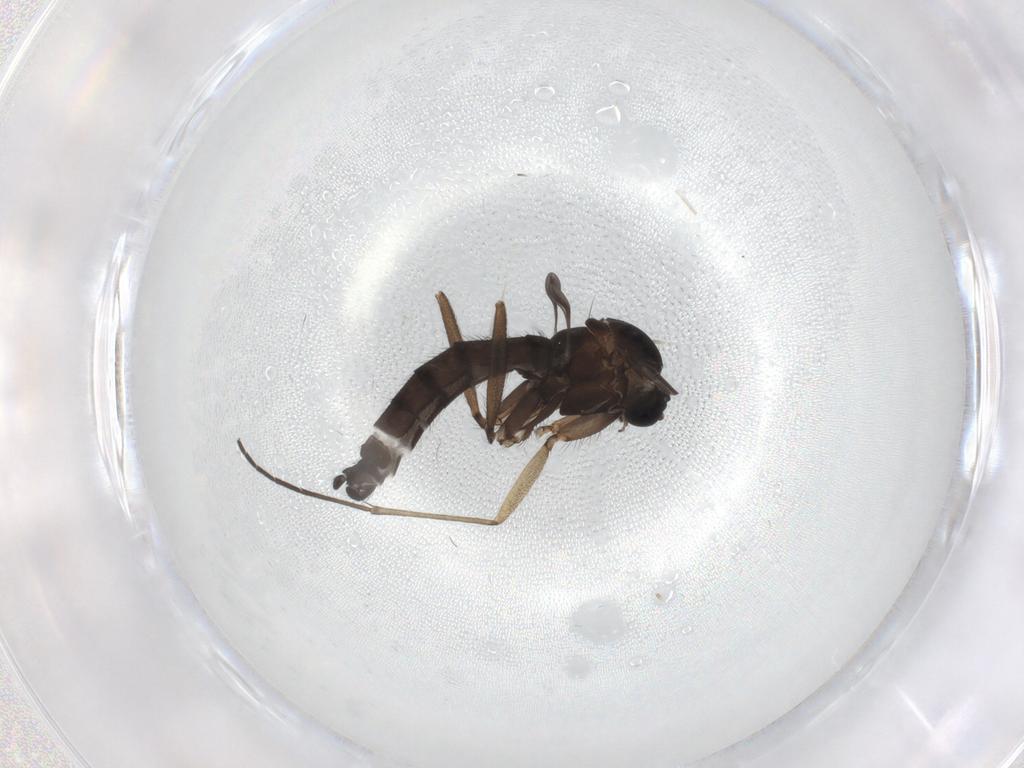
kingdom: Animalia
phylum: Arthropoda
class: Insecta
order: Diptera
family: Sciaridae
